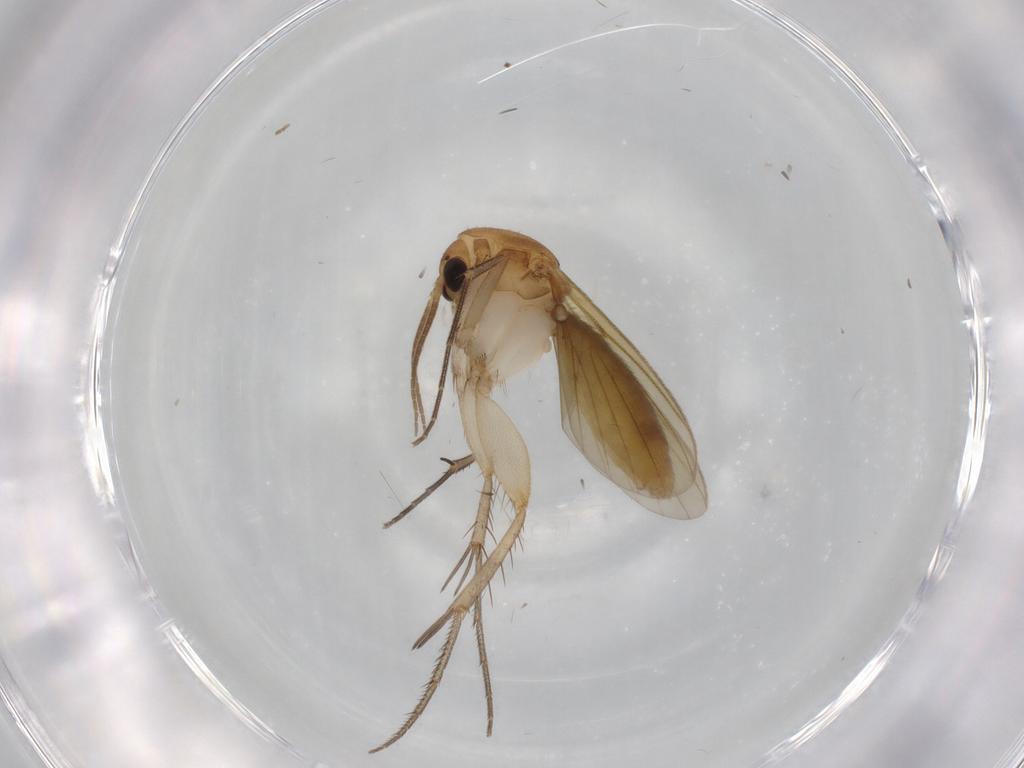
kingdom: Animalia
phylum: Arthropoda
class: Insecta
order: Diptera
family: Mycetophilidae
